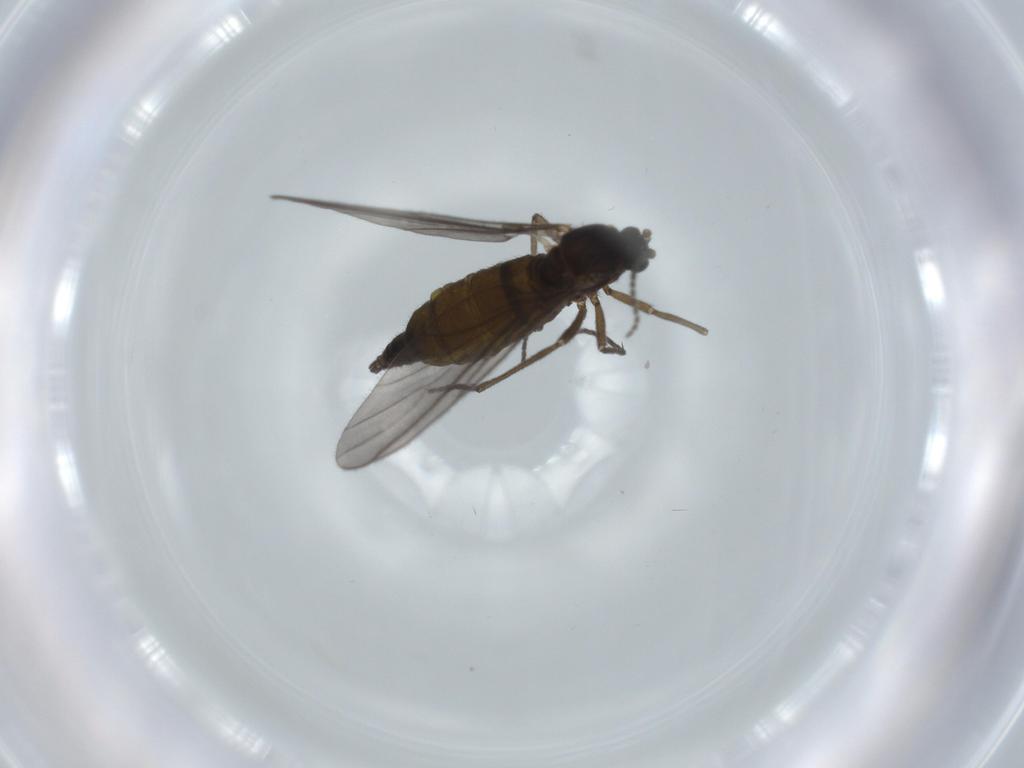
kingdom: Animalia
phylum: Arthropoda
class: Insecta
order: Diptera
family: Sciaridae
